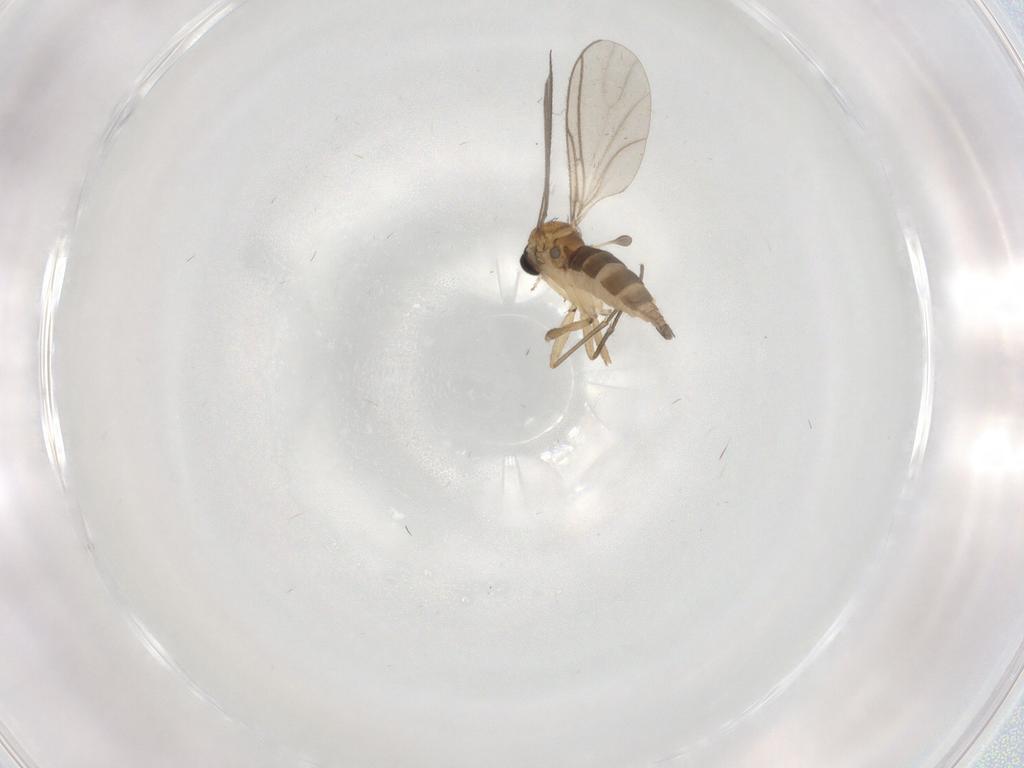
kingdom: Animalia
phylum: Arthropoda
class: Insecta
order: Diptera
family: Sciaridae
